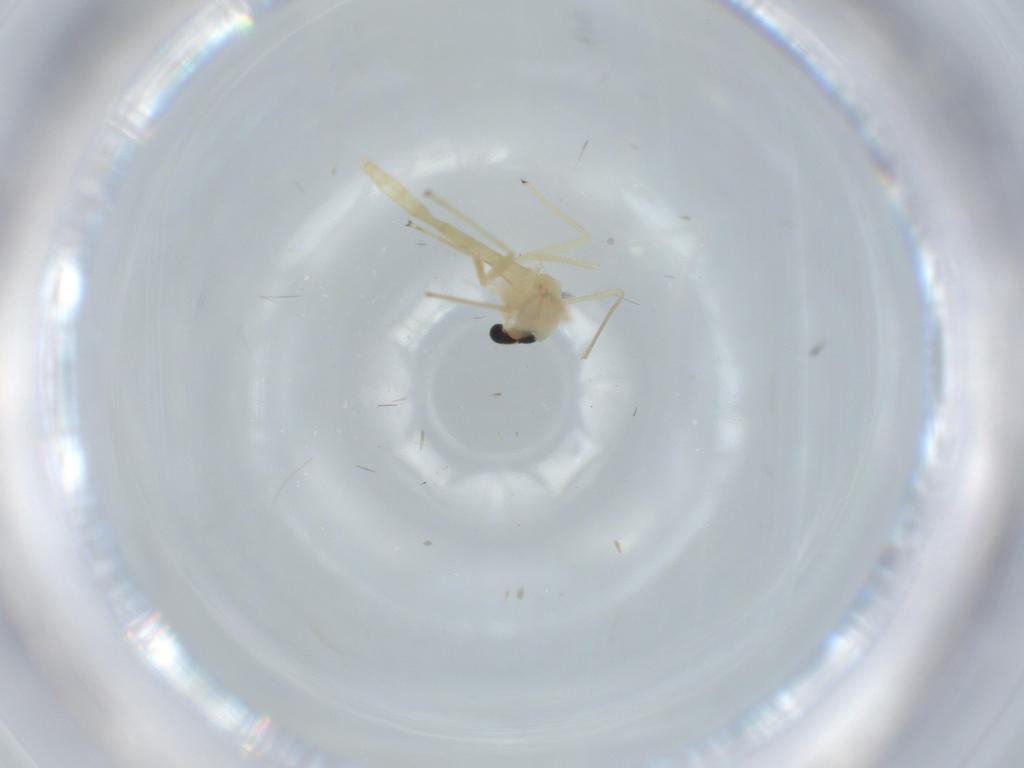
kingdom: Animalia
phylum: Arthropoda
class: Insecta
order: Diptera
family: Chironomidae
